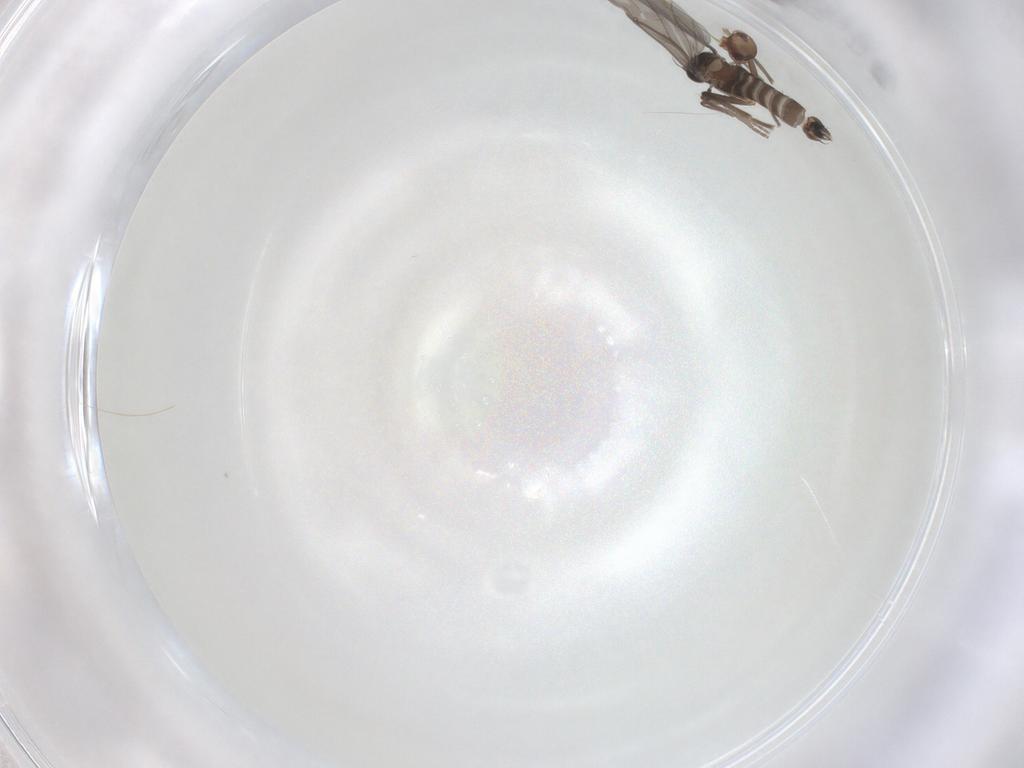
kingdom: Animalia
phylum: Arthropoda
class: Insecta
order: Diptera
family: Phoridae
